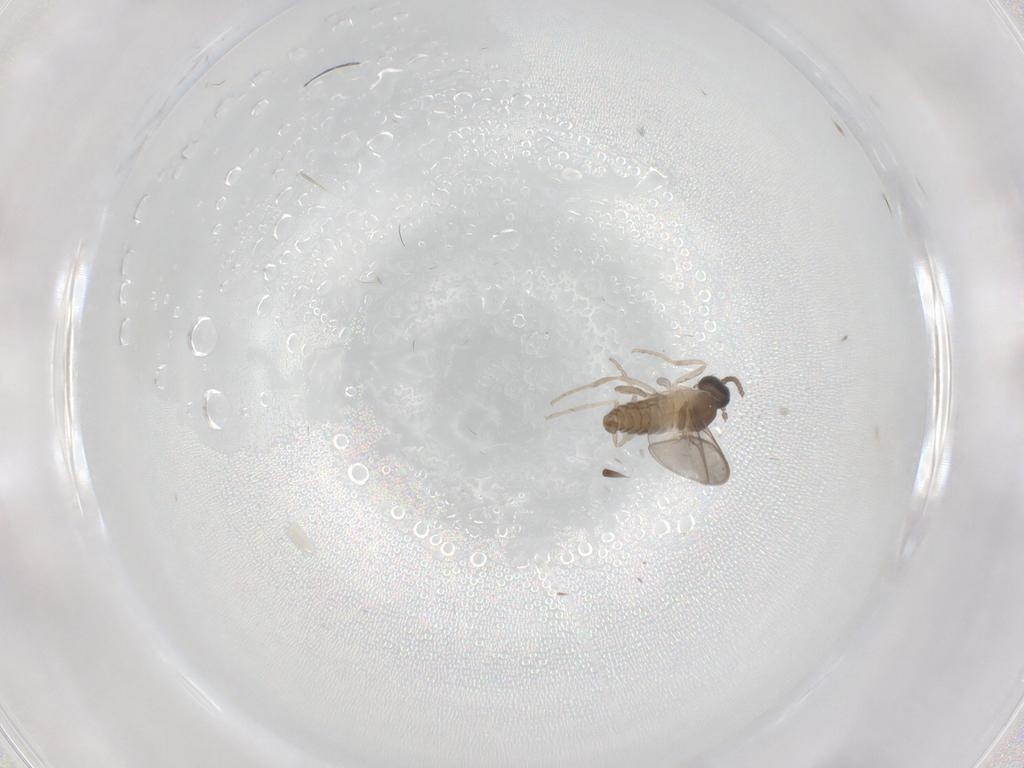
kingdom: Animalia
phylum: Arthropoda
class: Insecta
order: Diptera
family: Cecidomyiidae
